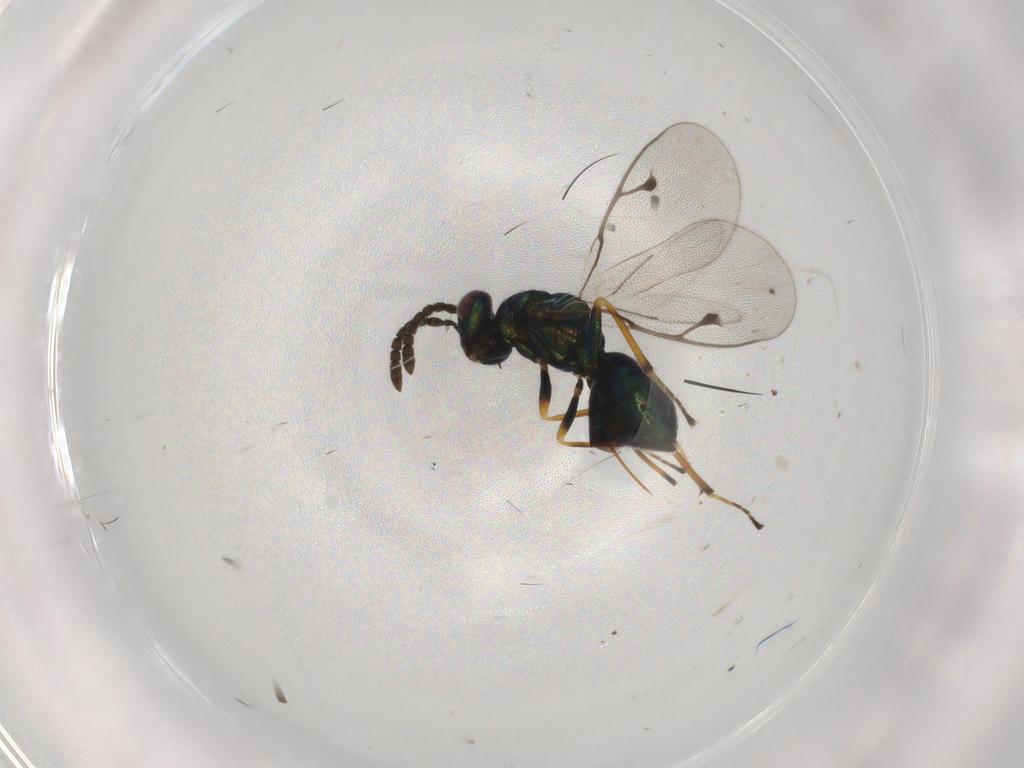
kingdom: Animalia
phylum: Arthropoda
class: Insecta
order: Hymenoptera
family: Pteromalidae
